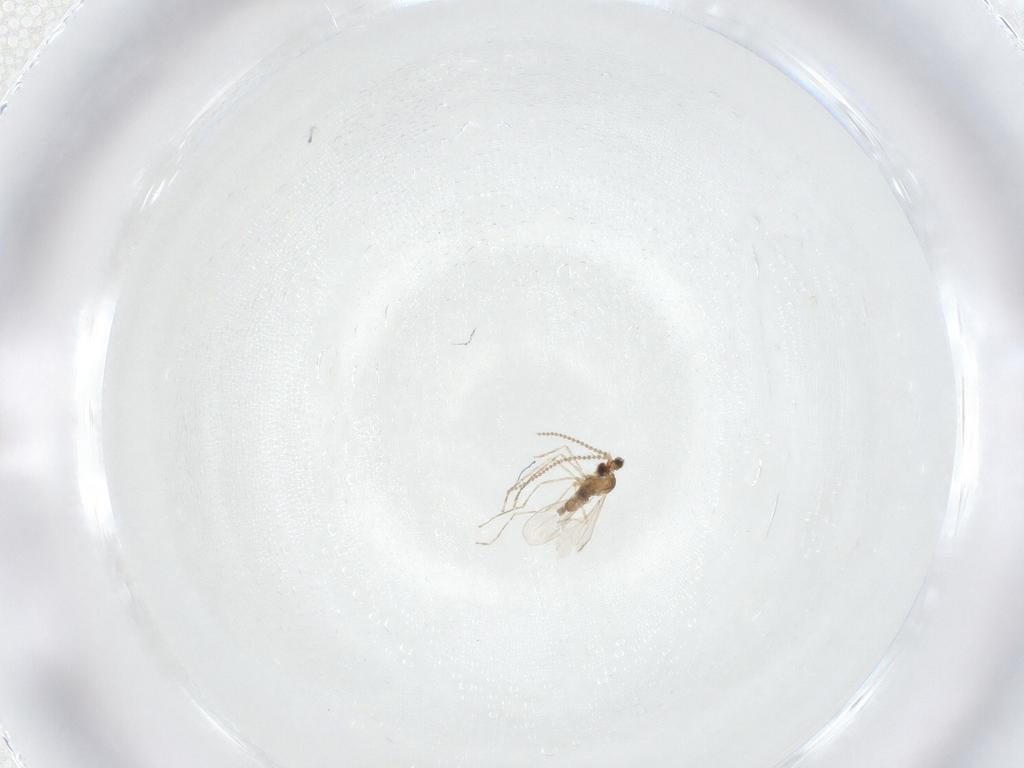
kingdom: Animalia
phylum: Arthropoda
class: Insecta
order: Diptera
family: Cecidomyiidae
